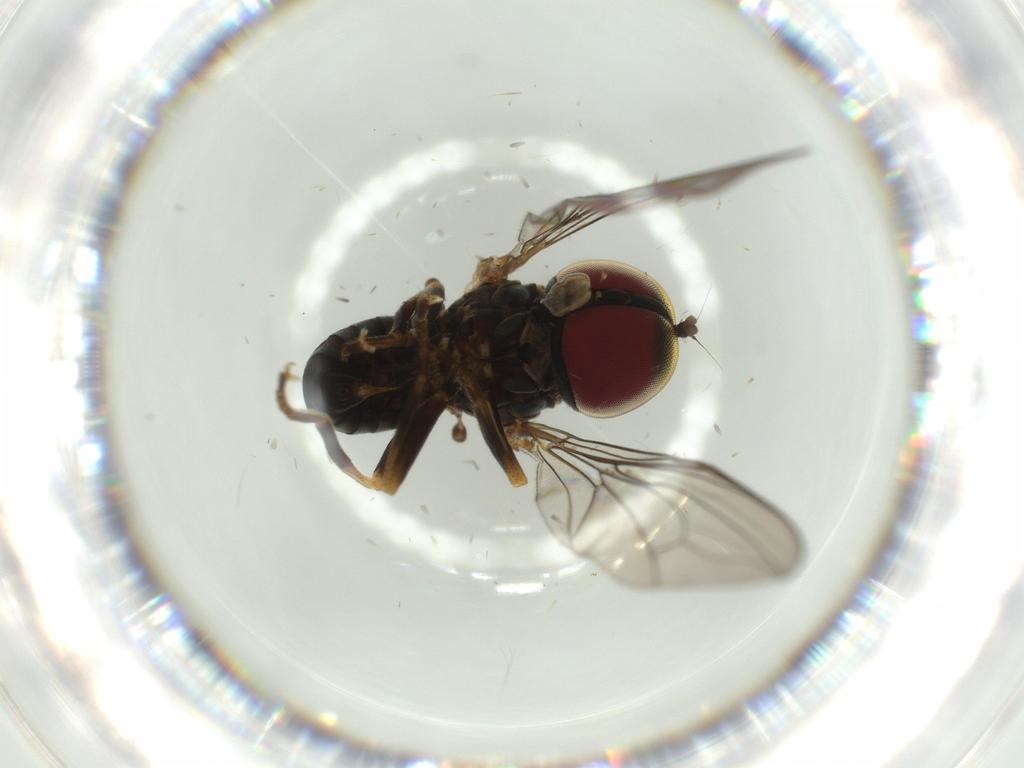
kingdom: Animalia
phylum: Arthropoda
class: Insecta
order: Diptera
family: Pipunculidae
